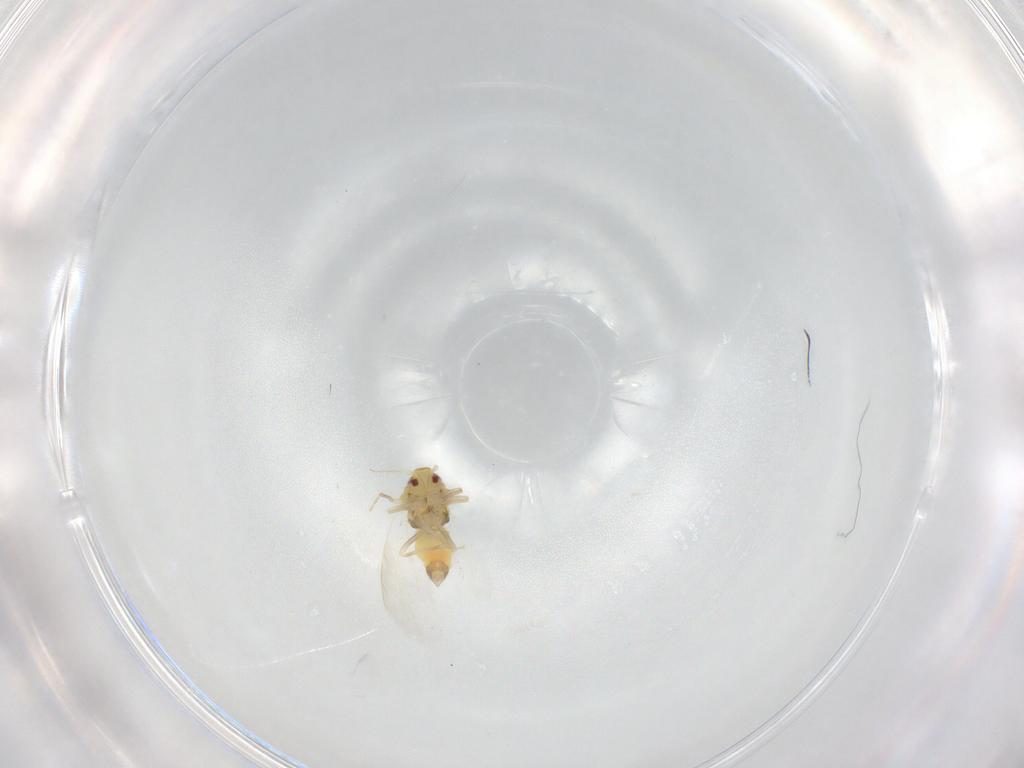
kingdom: Animalia
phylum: Arthropoda
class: Insecta
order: Hemiptera
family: Aleyrodidae
